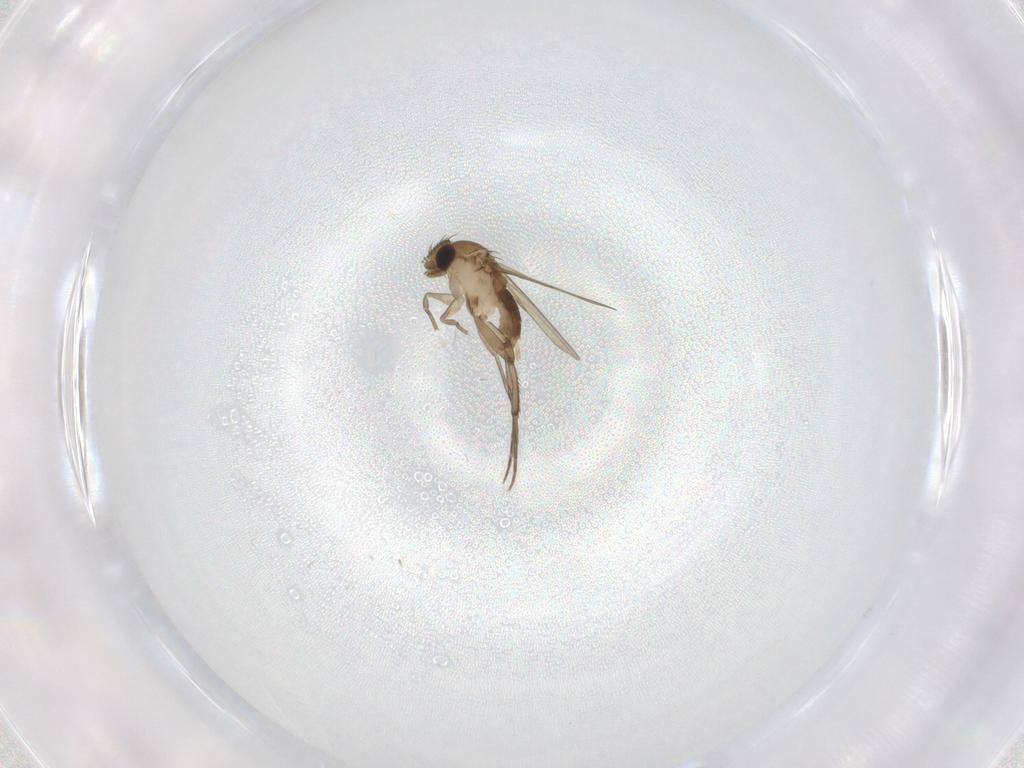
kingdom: Animalia
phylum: Arthropoda
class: Insecta
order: Diptera
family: Phoridae
